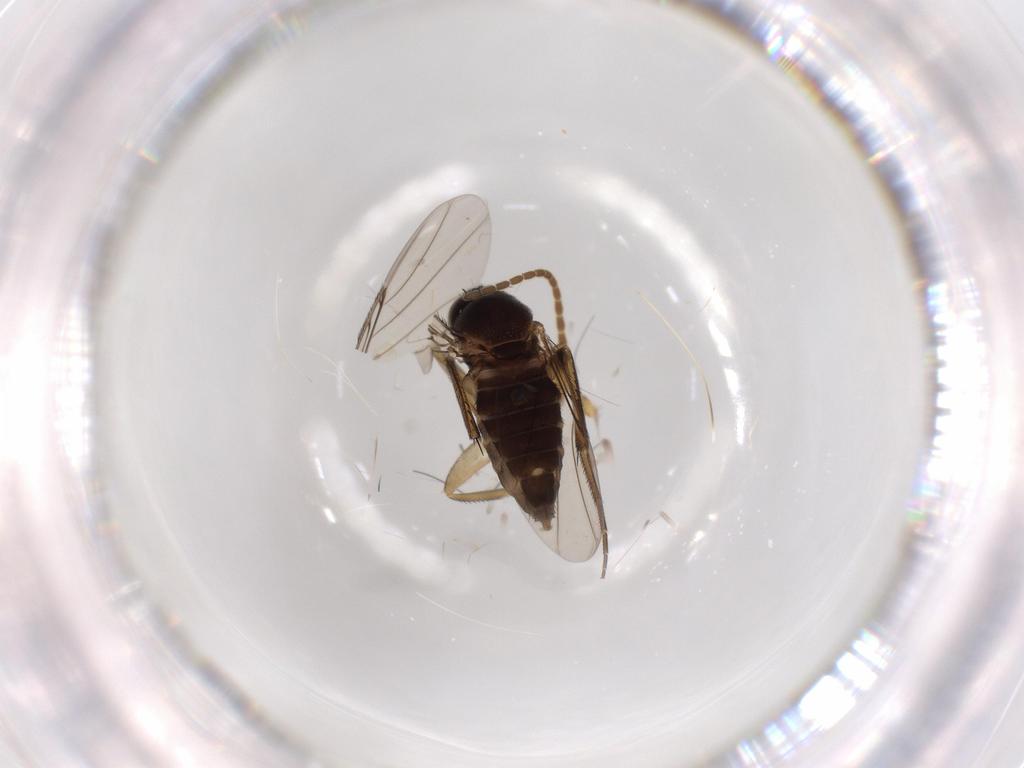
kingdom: Animalia
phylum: Arthropoda
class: Insecta
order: Diptera
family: Phoridae
